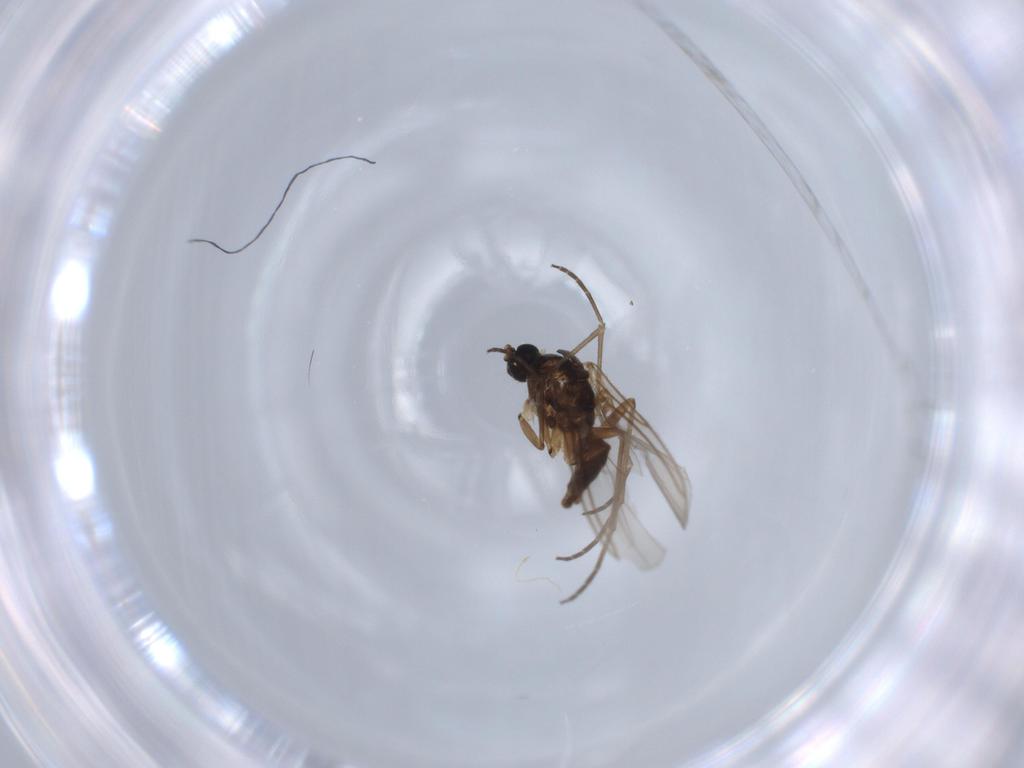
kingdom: Animalia
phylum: Arthropoda
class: Insecta
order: Diptera
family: Sciaridae
